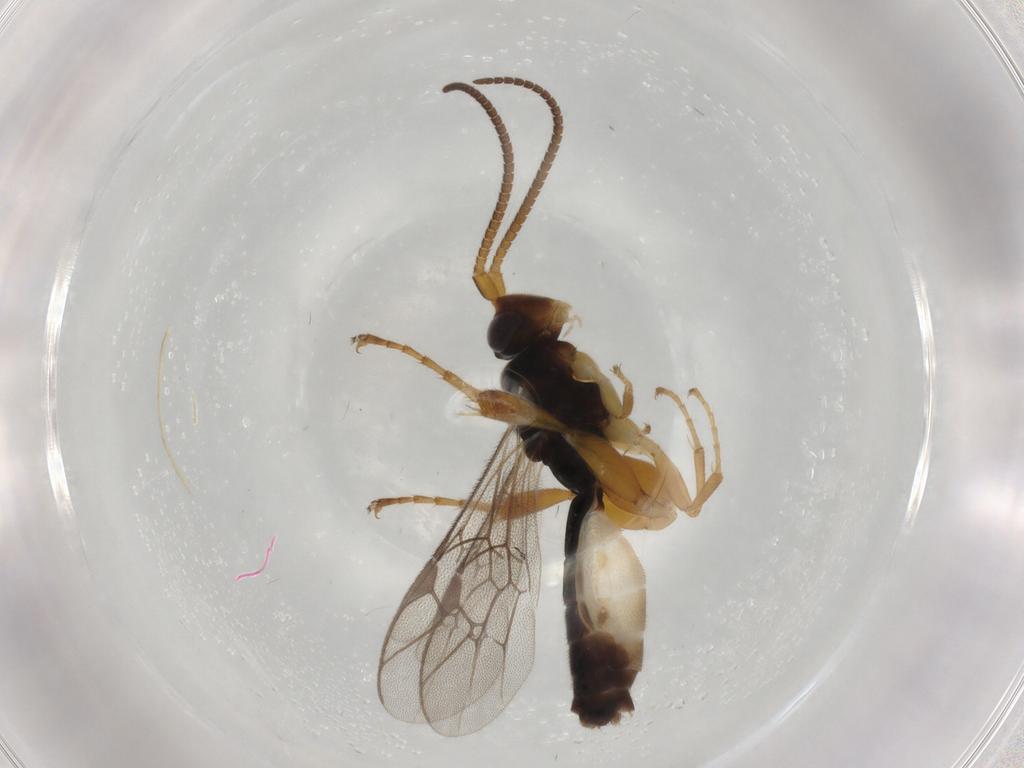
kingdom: Animalia
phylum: Arthropoda
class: Insecta
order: Hymenoptera
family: Ichneumonidae
